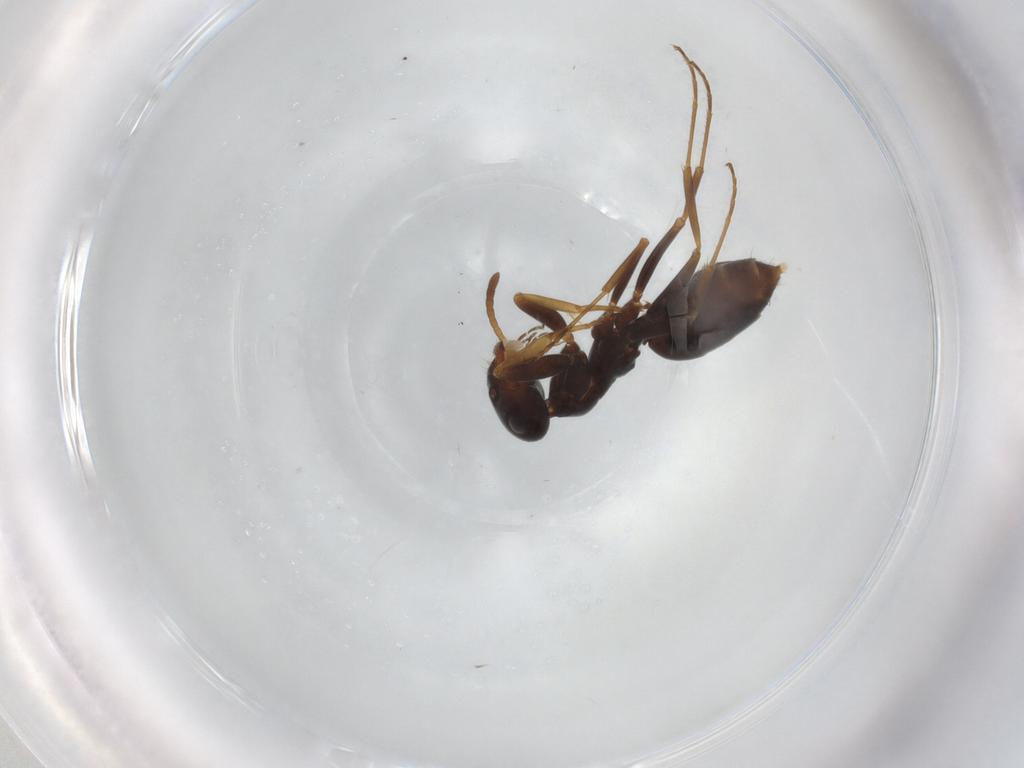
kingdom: Animalia
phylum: Arthropoda
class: Insecta
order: Hymenoptera
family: Formicidae
